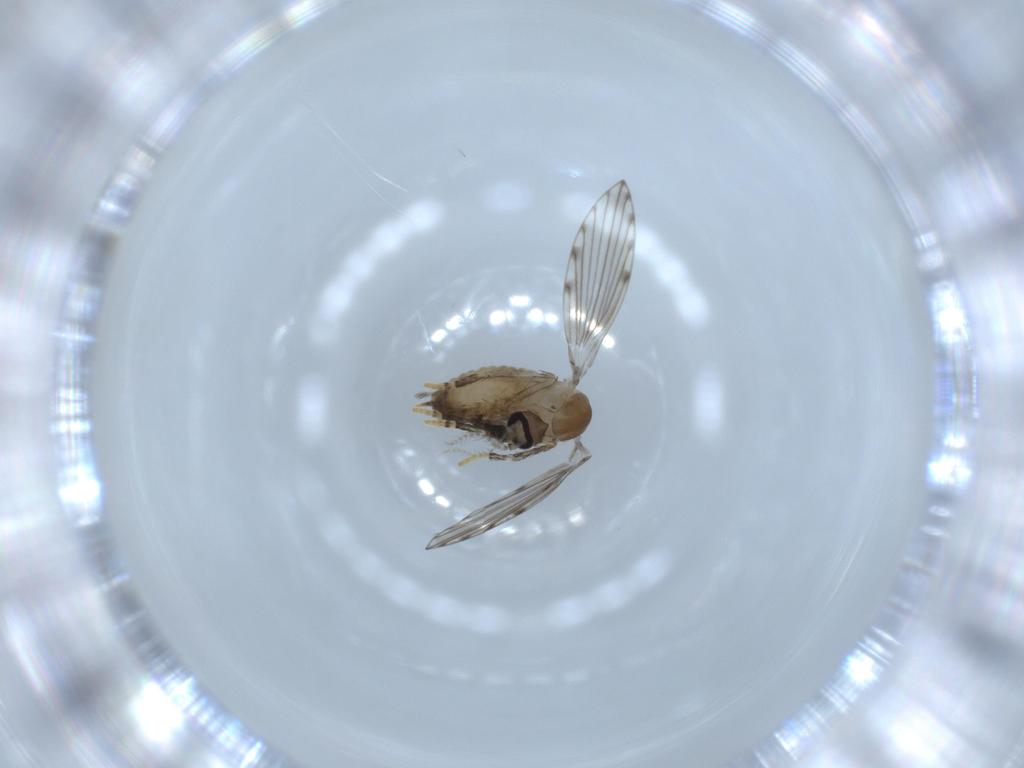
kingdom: Animalia
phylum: Arthropoda
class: Insecta
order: Diptera
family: Psychodidae
